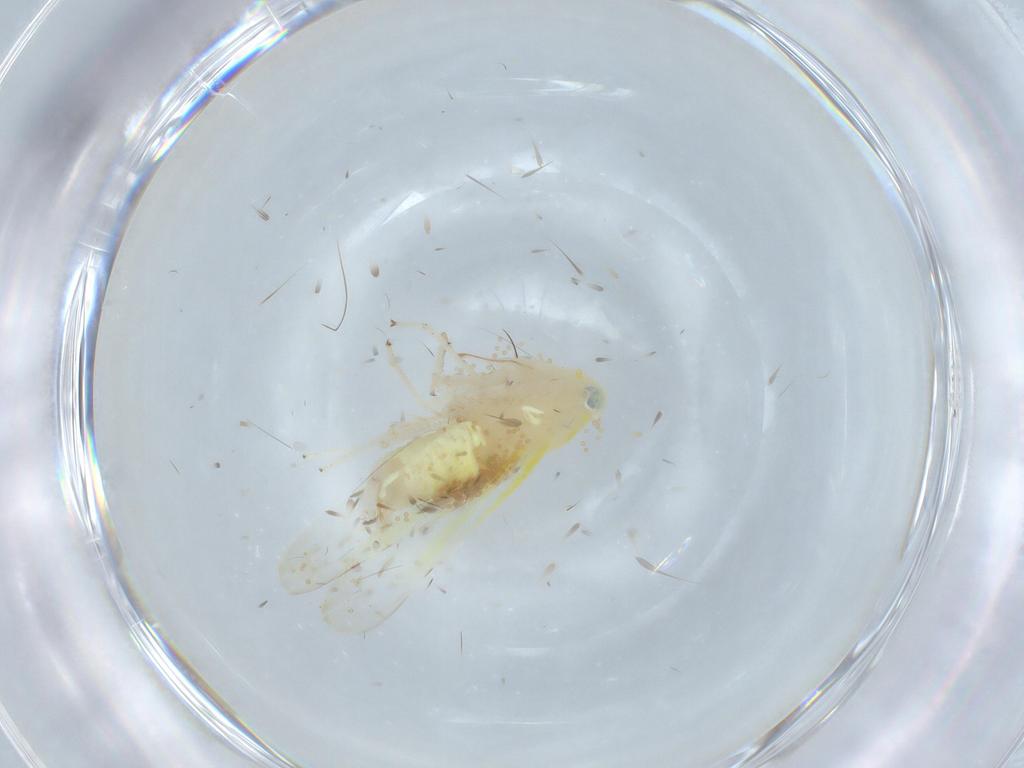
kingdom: Animalia
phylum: Arthropoda
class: Insecta
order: Hemiptera
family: Cicadellidae
